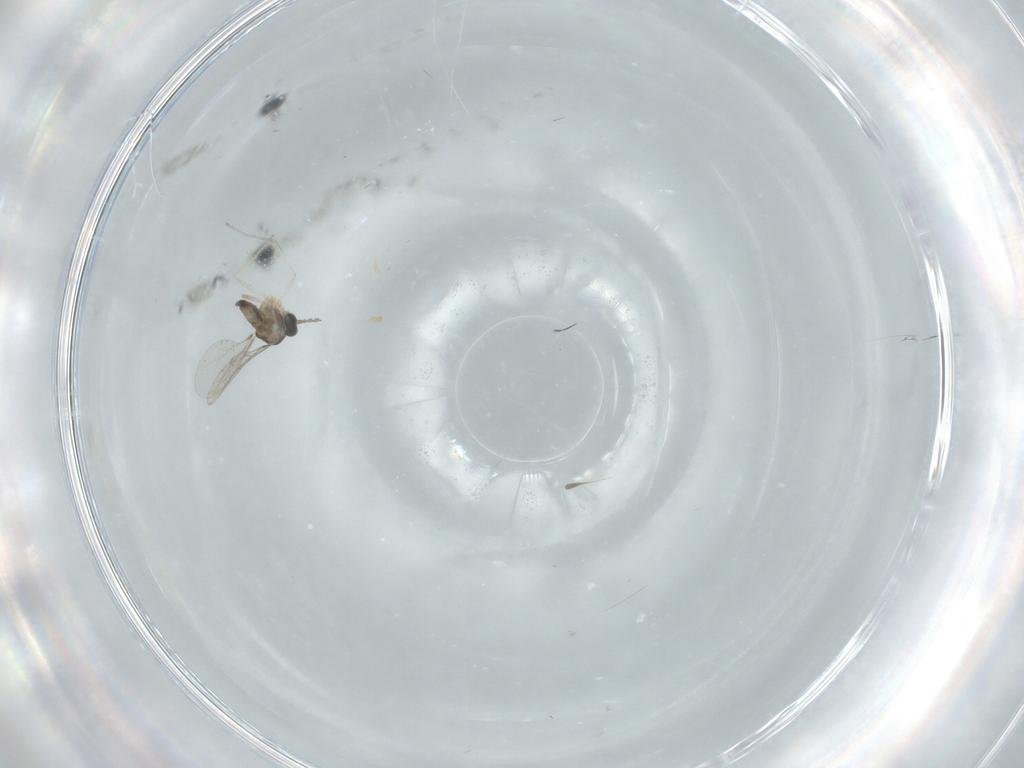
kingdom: Animalia
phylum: Arthropoda
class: Insecta
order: Diptera
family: Cecidomyiidae
